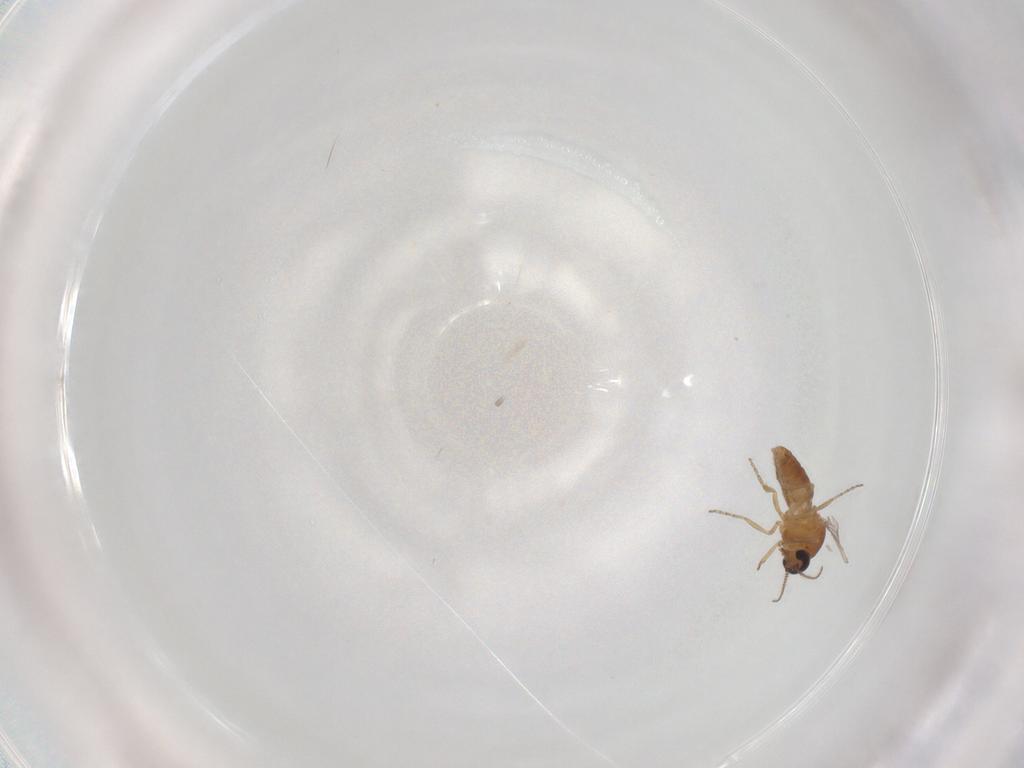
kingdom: Animalia
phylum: Arthropoda
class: Insecta
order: Diptera
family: Ceratopogonidae
